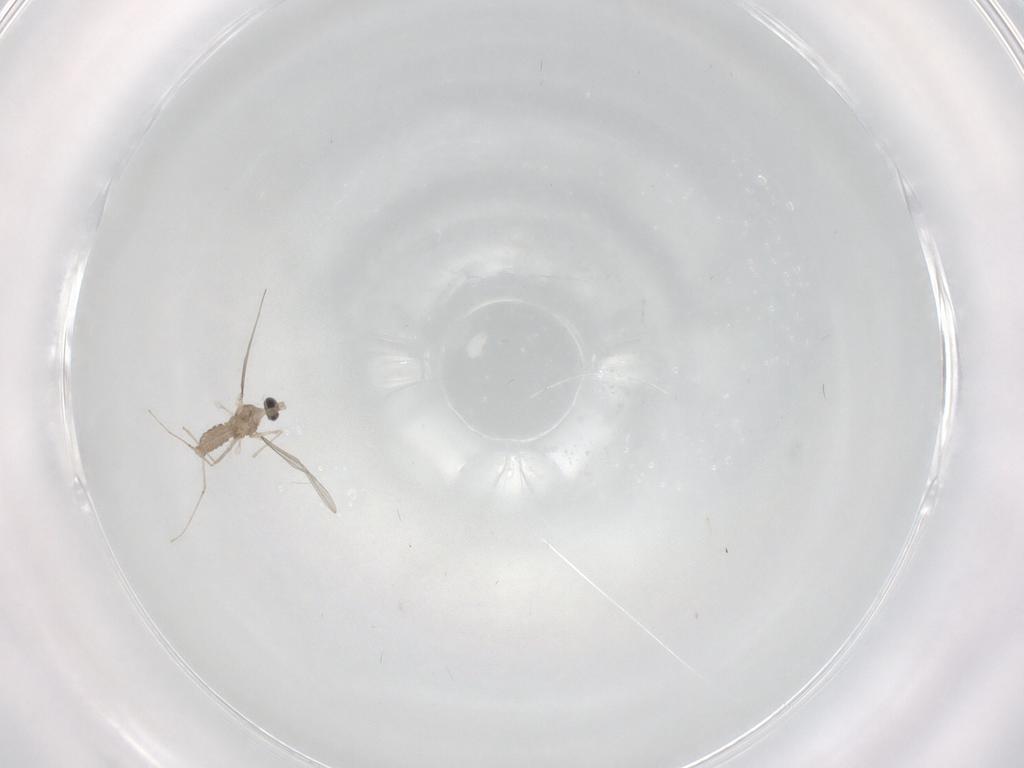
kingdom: Animalia
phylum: Arthropoda
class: Insecta
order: Diptera
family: Cecidomyiidae
